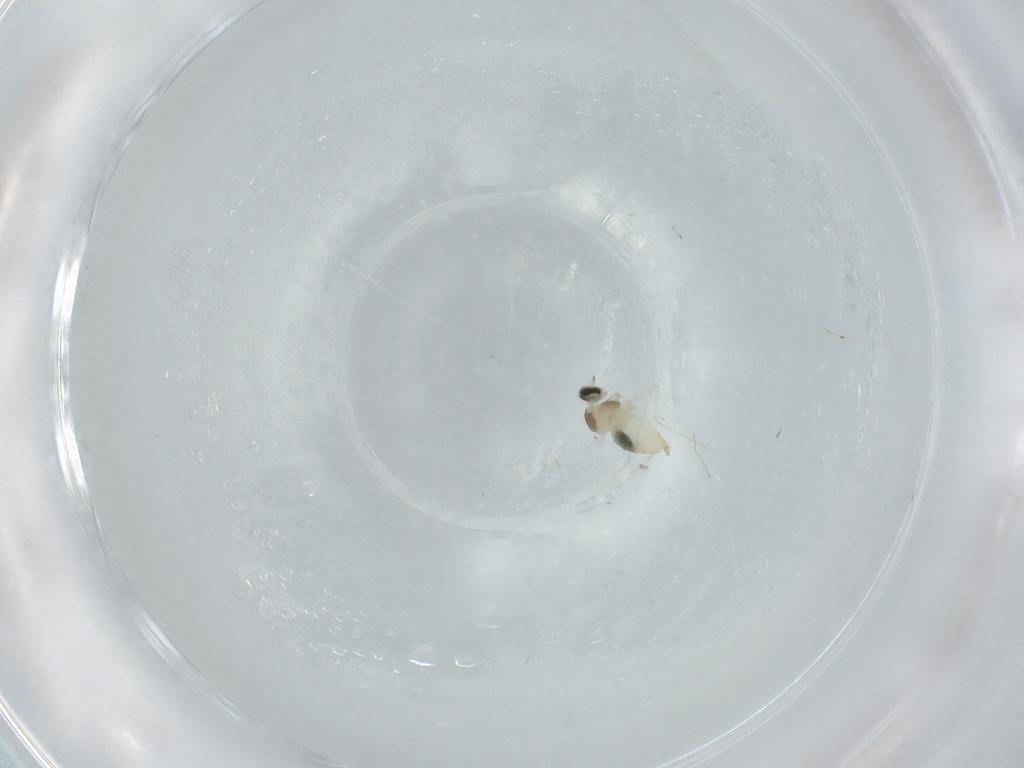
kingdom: Animalia
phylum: Arthropoda
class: Insecta
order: Diptera
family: Cecidomyiidae
